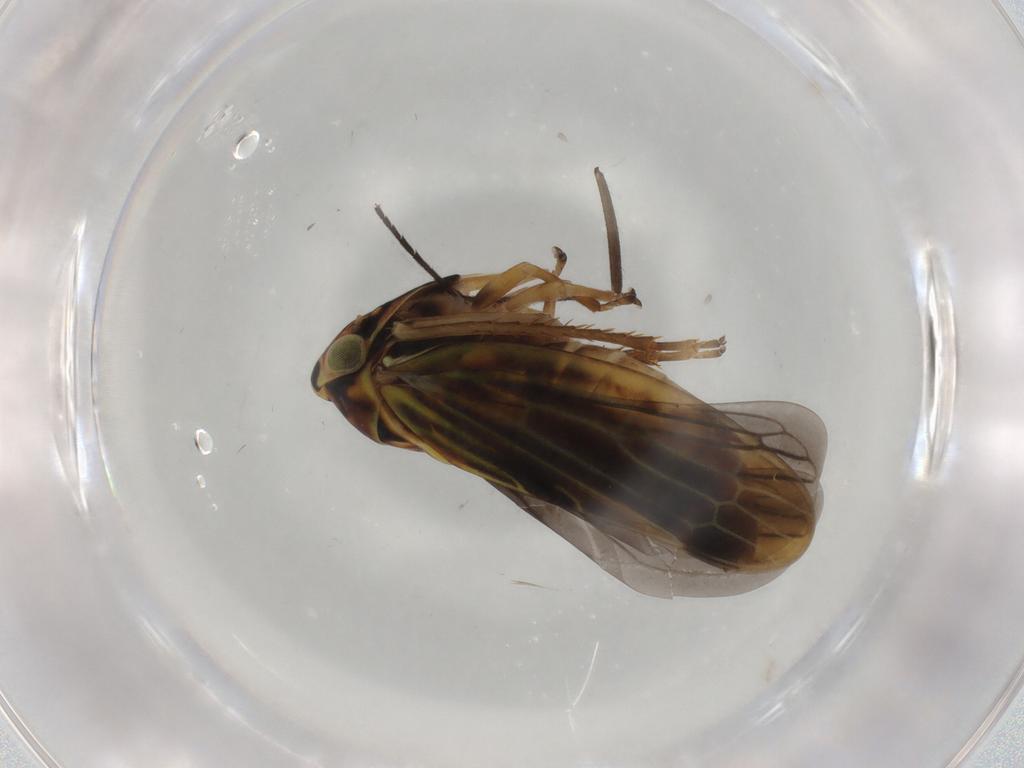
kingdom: Animalia
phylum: Arthropoda
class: Insecta
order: Hemiptera
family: Cicadellidae
